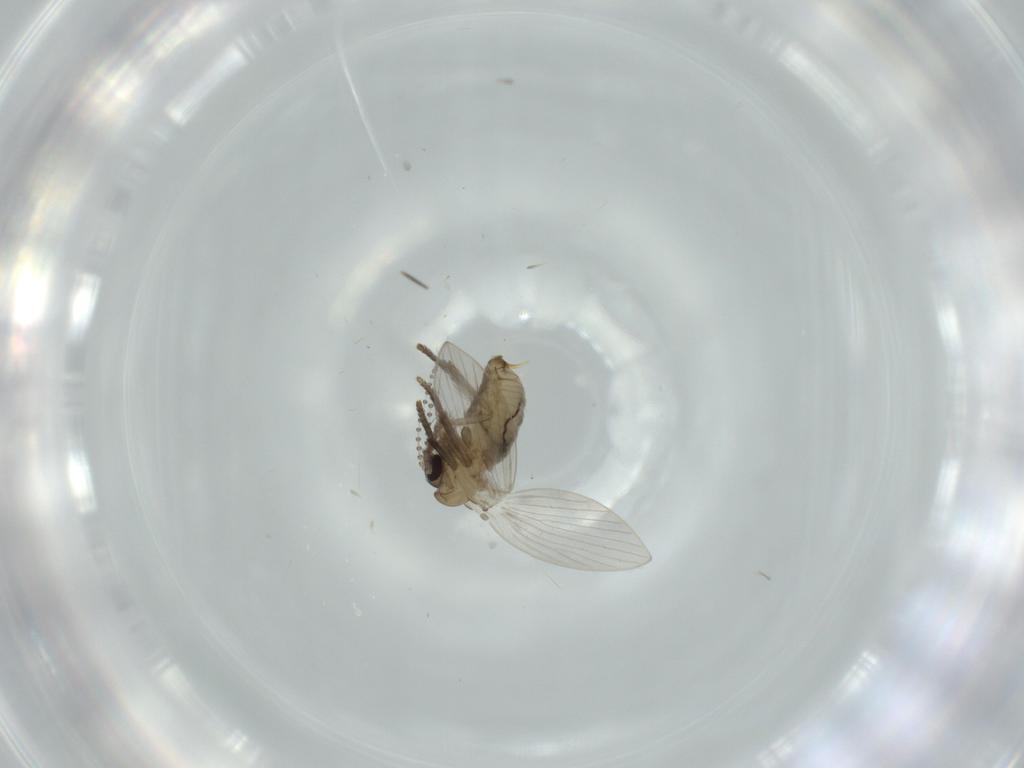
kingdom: Animalia
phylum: Arthropoda
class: Insecta
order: Diptera
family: Psychodidae
